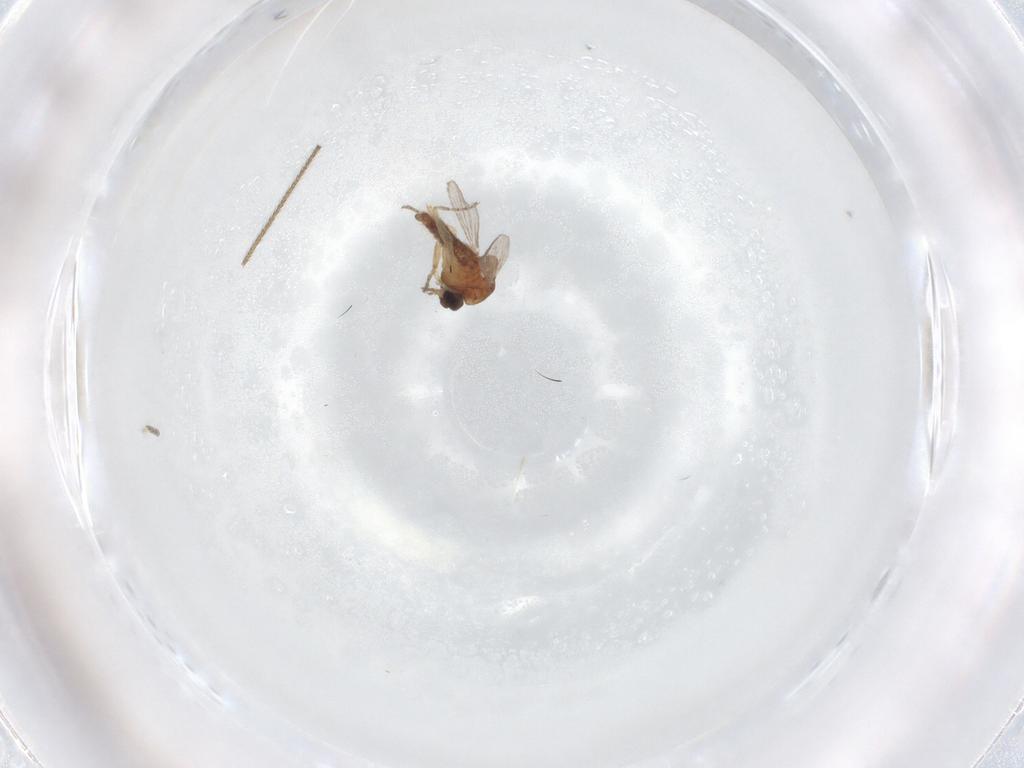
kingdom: Animalia
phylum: Arthropoda
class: Insecta
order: Diptera
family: Ceratopogonidae
